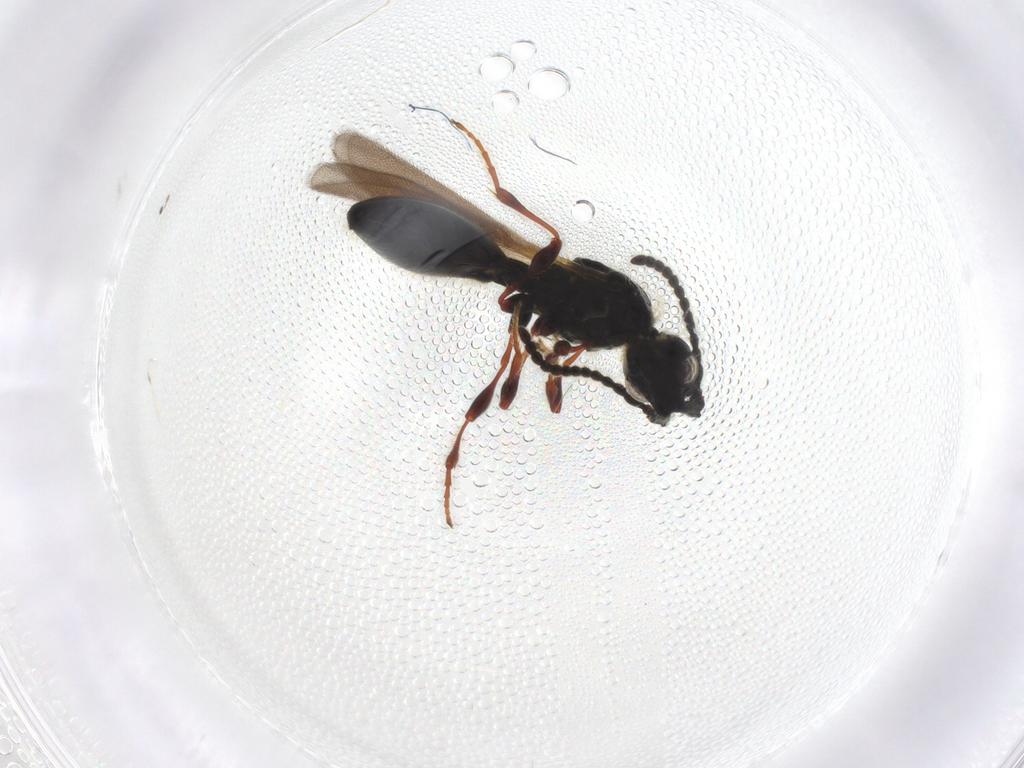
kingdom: Animalia
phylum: Arthropoda
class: Insecta
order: Hymenoptera
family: Diapriidae
